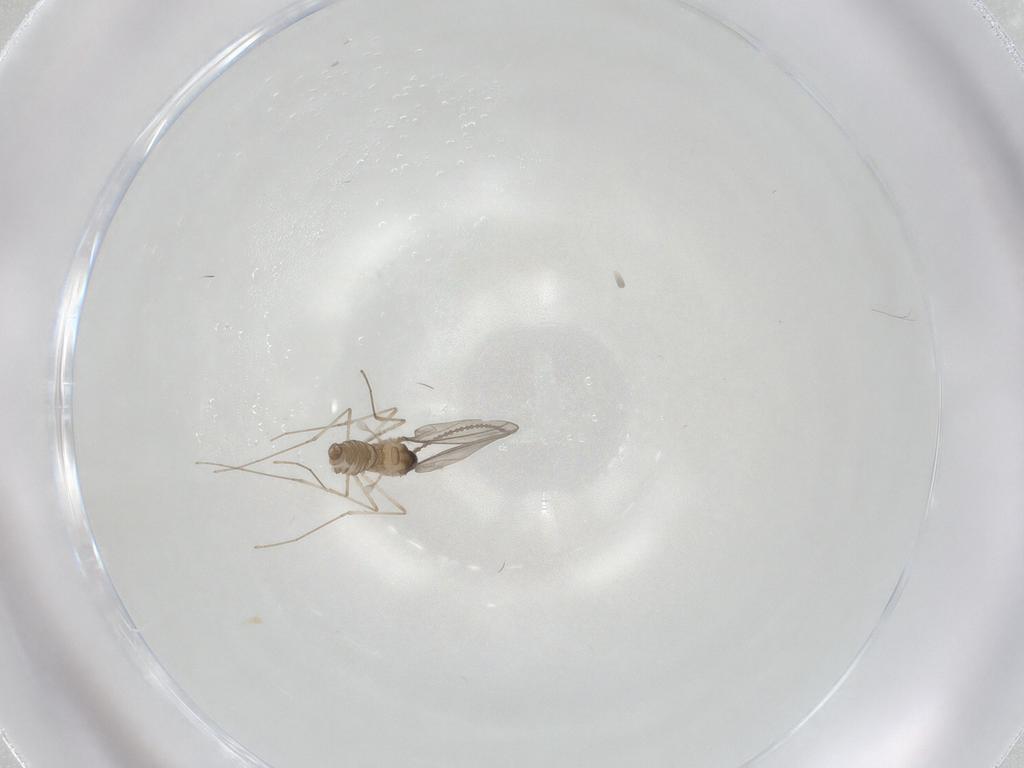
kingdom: Animalia
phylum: Arthropoda
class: Insecta
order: Diptera
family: Cecidomyiidae
